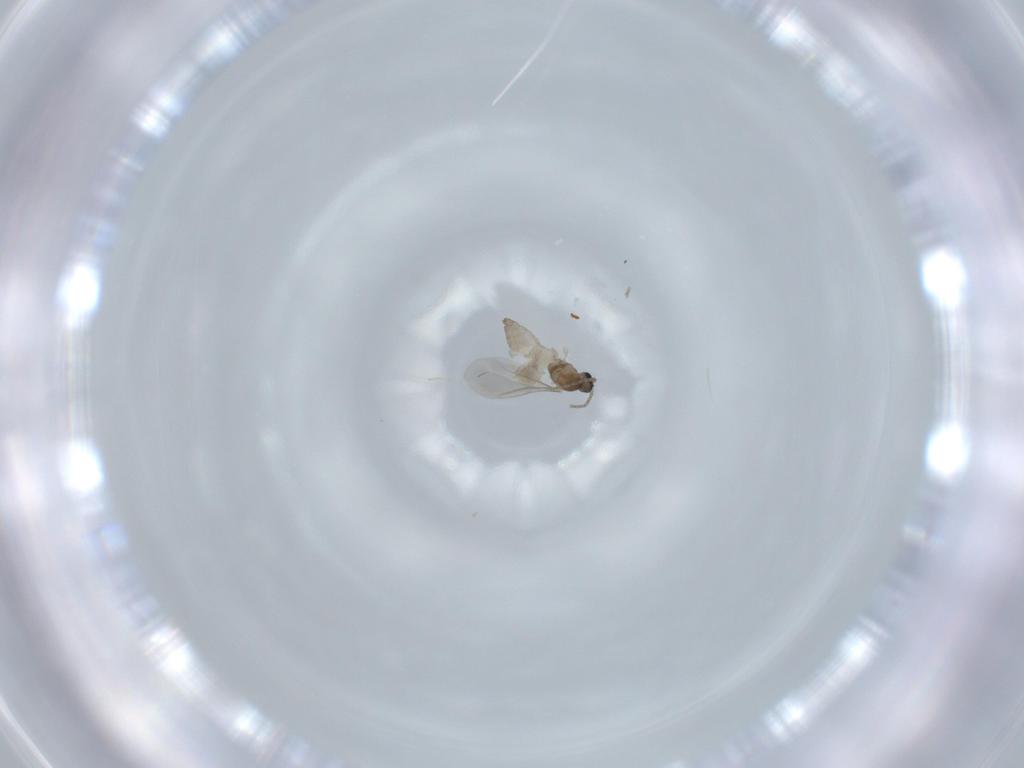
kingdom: Animalia
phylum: Arthropoda
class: Insecta
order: Diptera
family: Cecidomyiidae
